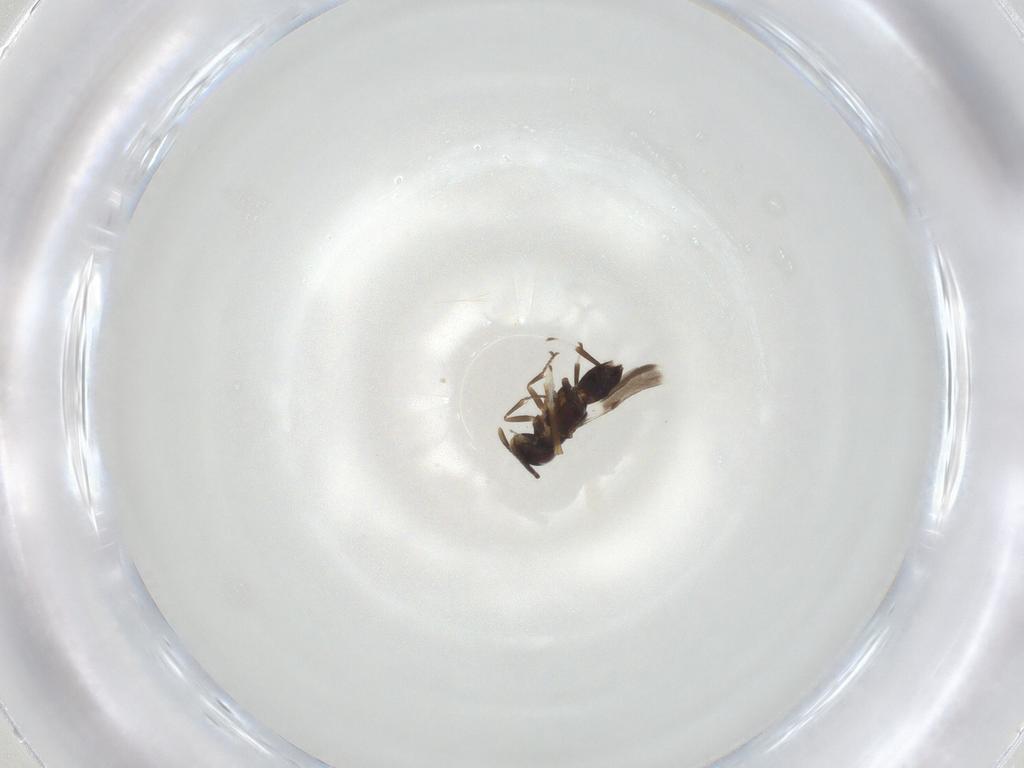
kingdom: Animalia
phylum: Arthropoda
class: Insecta
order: Hymenoptera
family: Encyrtidae
